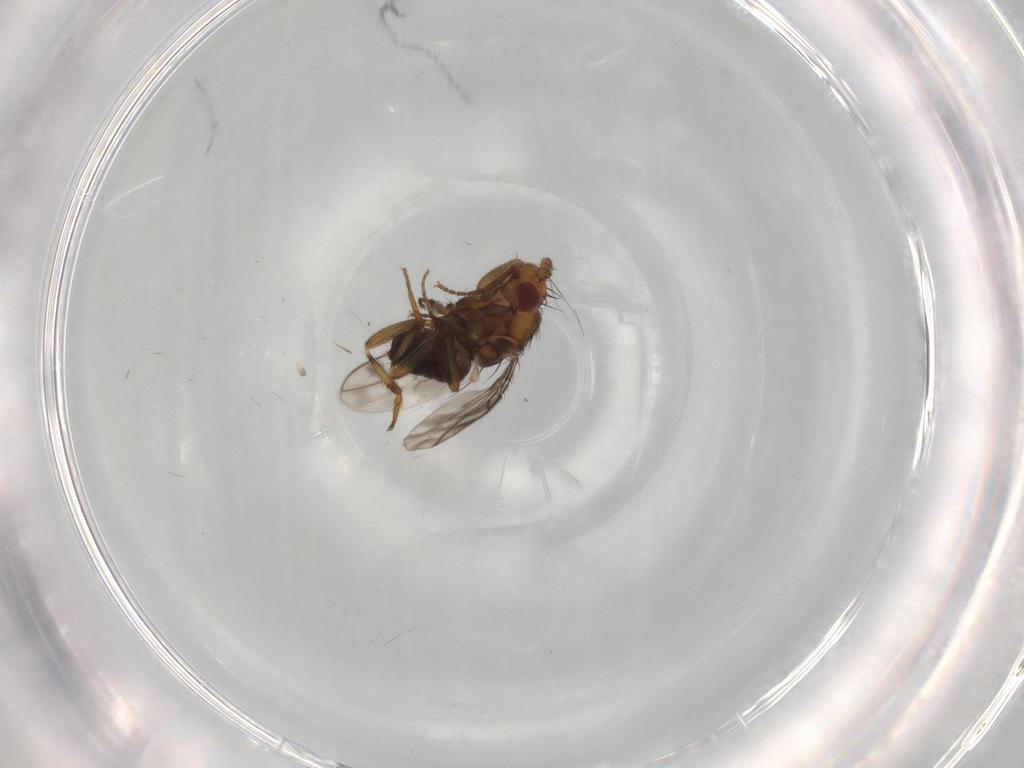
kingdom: Animalia
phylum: Arthropoda
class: Insecta
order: Diptera
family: Sphaeroceridae
